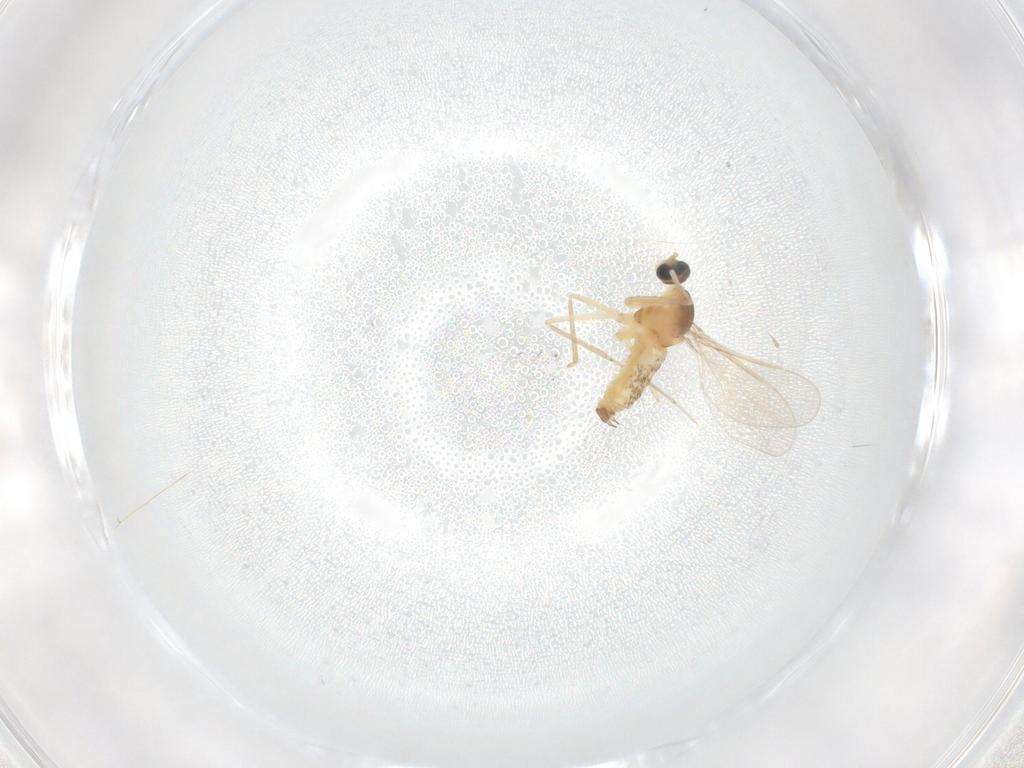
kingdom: Animalia
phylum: Arthropoda
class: Insecta
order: Diptera
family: Cecidomyiidae
